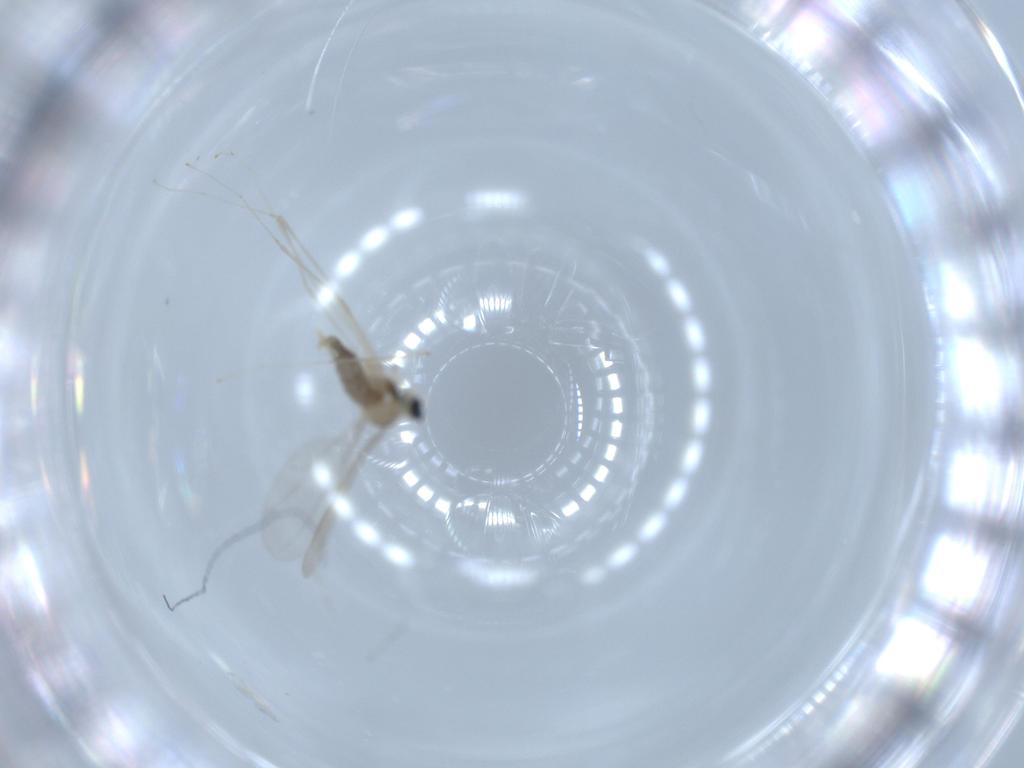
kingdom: Animalia
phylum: Arthropoda
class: Insecta
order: Diptera
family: Cecidomyiidae
